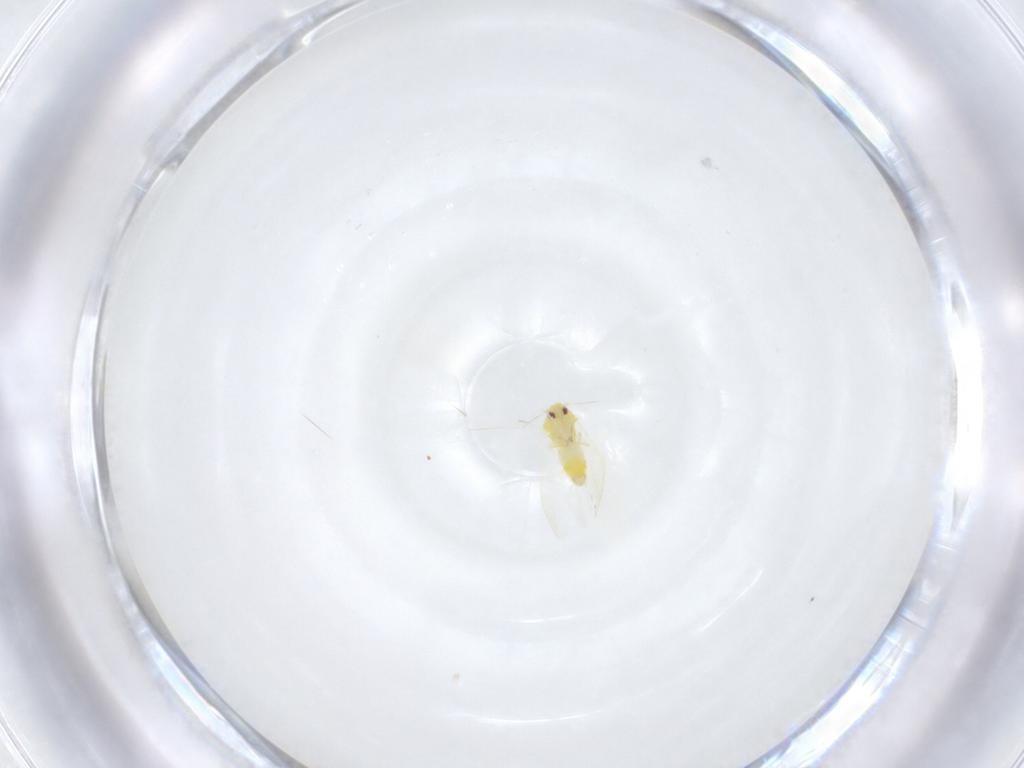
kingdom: Animalia
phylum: Arthropoda
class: Insecta
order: Hemiptera
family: Aleyrodidae
